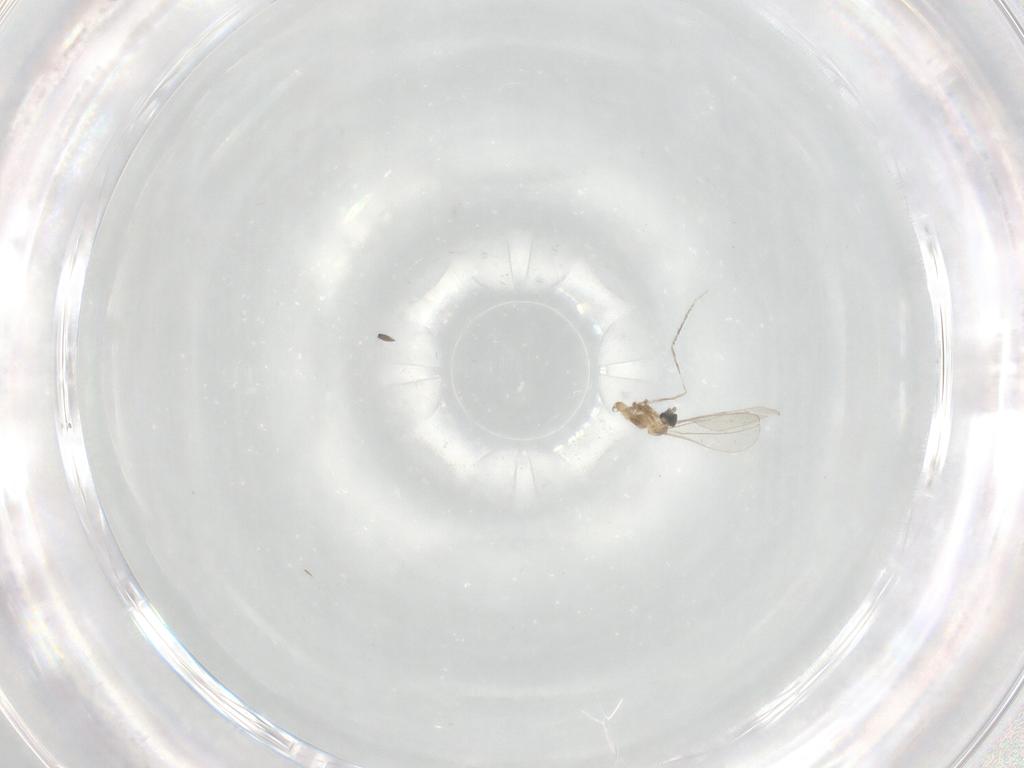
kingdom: Animalia
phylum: Arthropoda
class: Insecta
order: Diptera
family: Cecidomyiidae
